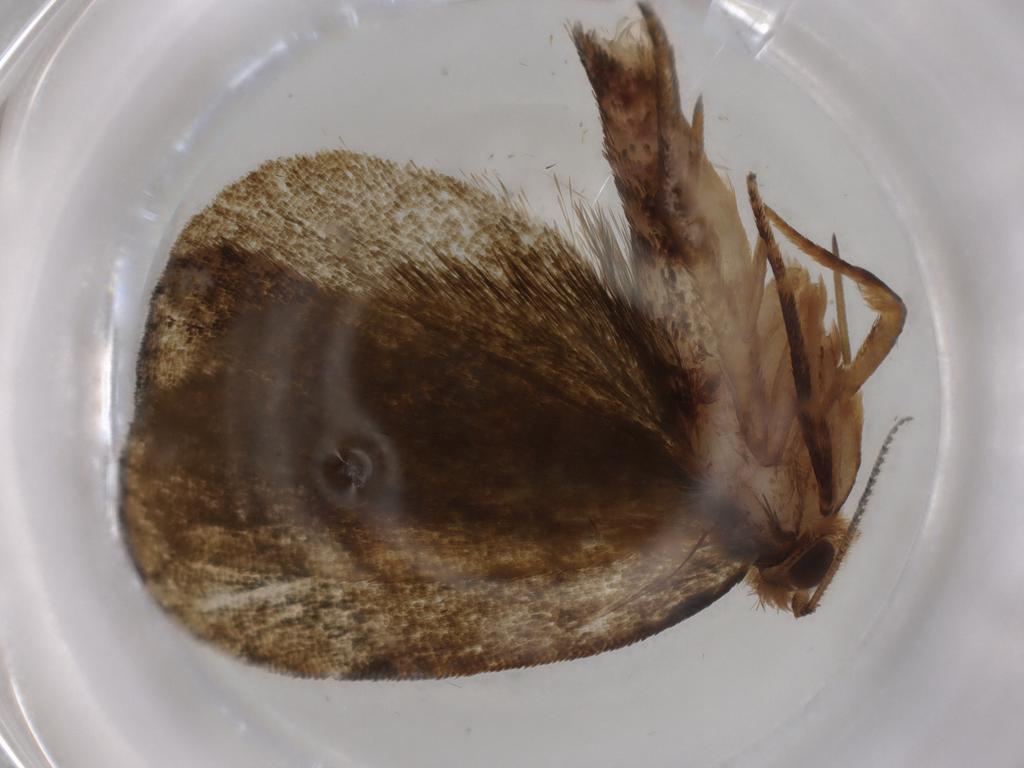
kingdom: Animalia
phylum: Arthropoda
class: Insecta
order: Lepidoptera
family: Geometridae
